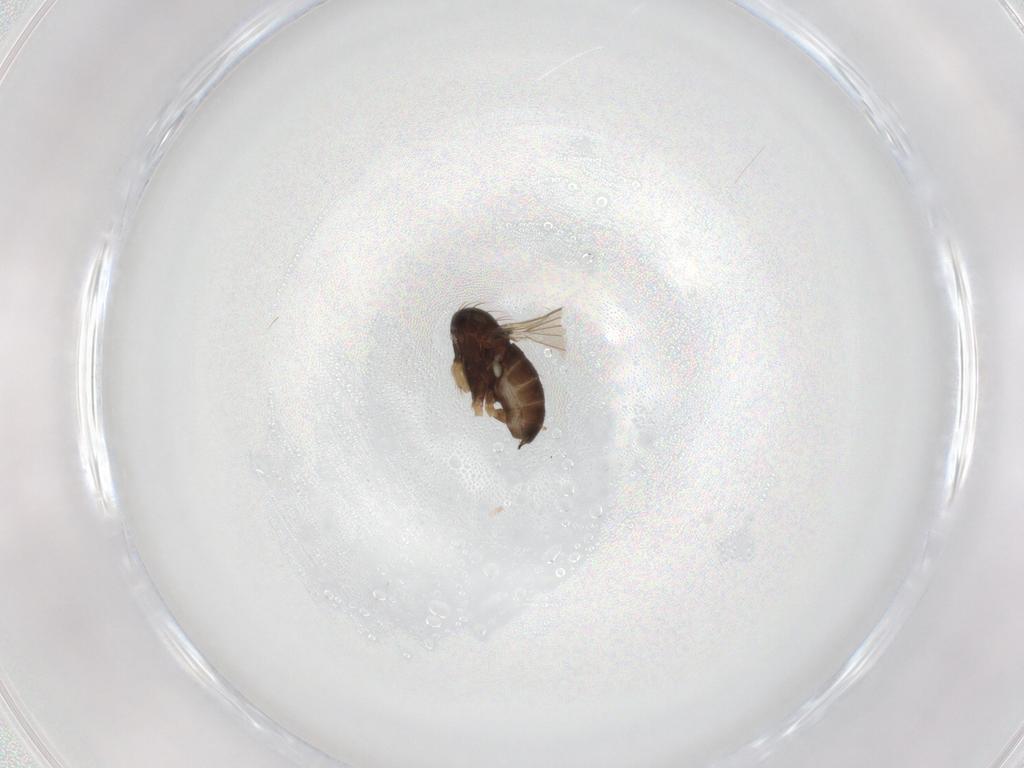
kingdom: Animalia
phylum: Arthropoda
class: Insecta
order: Diptera
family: Dolichopodidae
